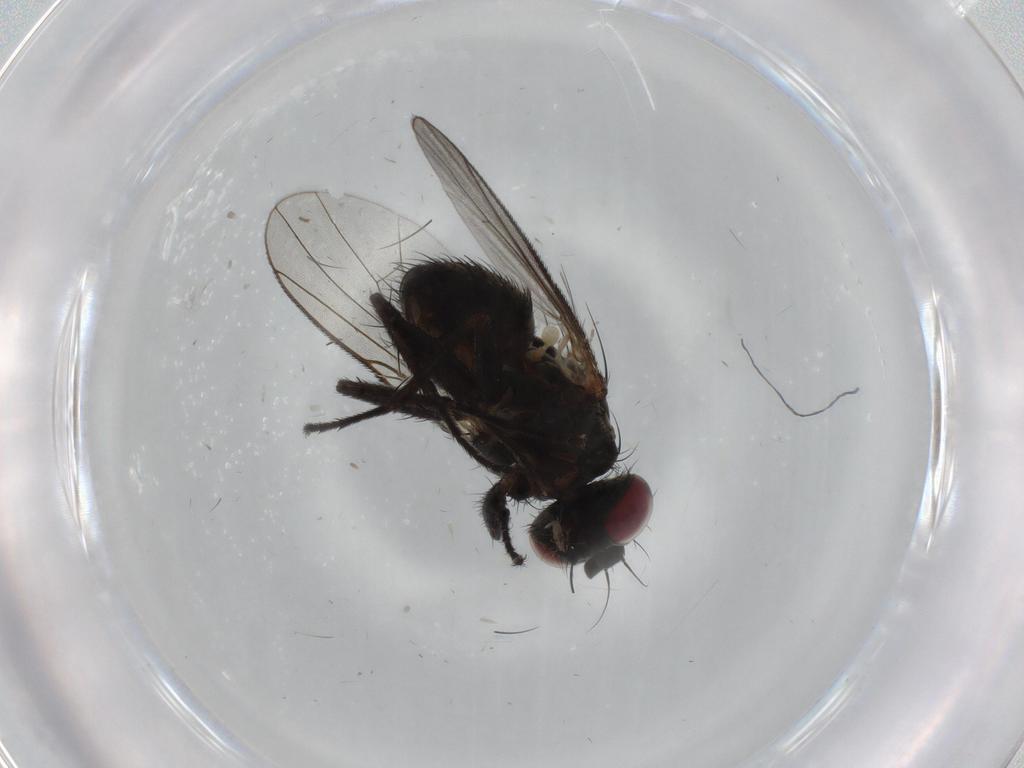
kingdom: Animalia
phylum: Arthropoda
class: Insecta
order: Diptera
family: Muscidae
